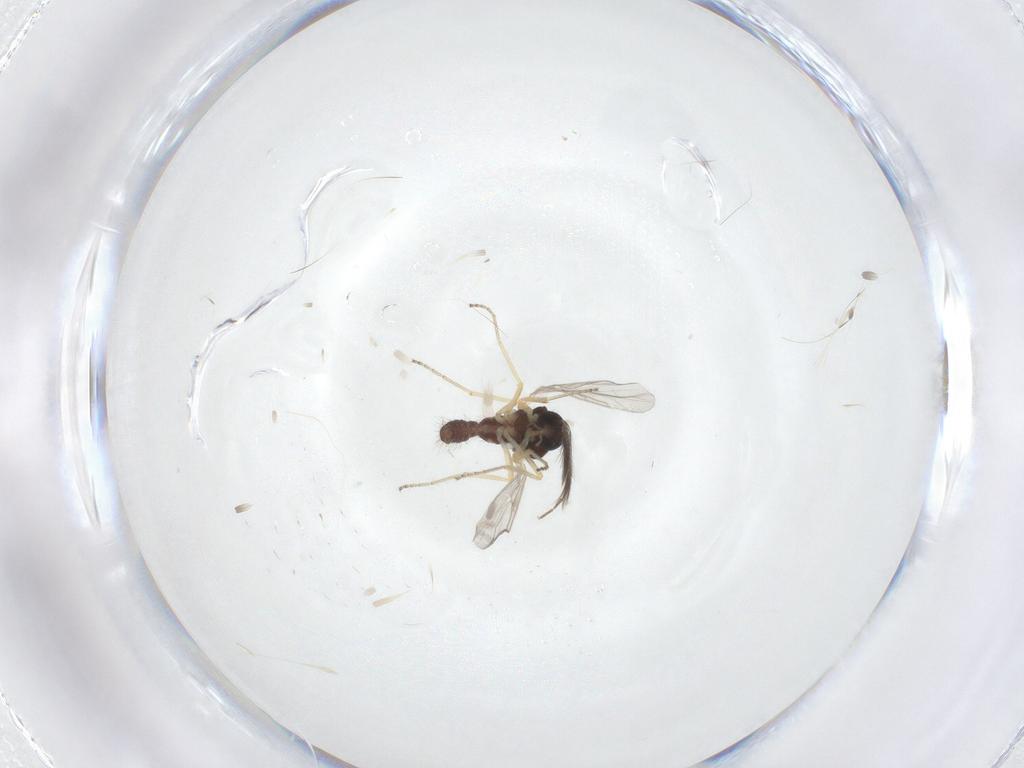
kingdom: Animalia
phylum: Arthropoda
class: Insecta
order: Diptera
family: Ceratopogonidae
